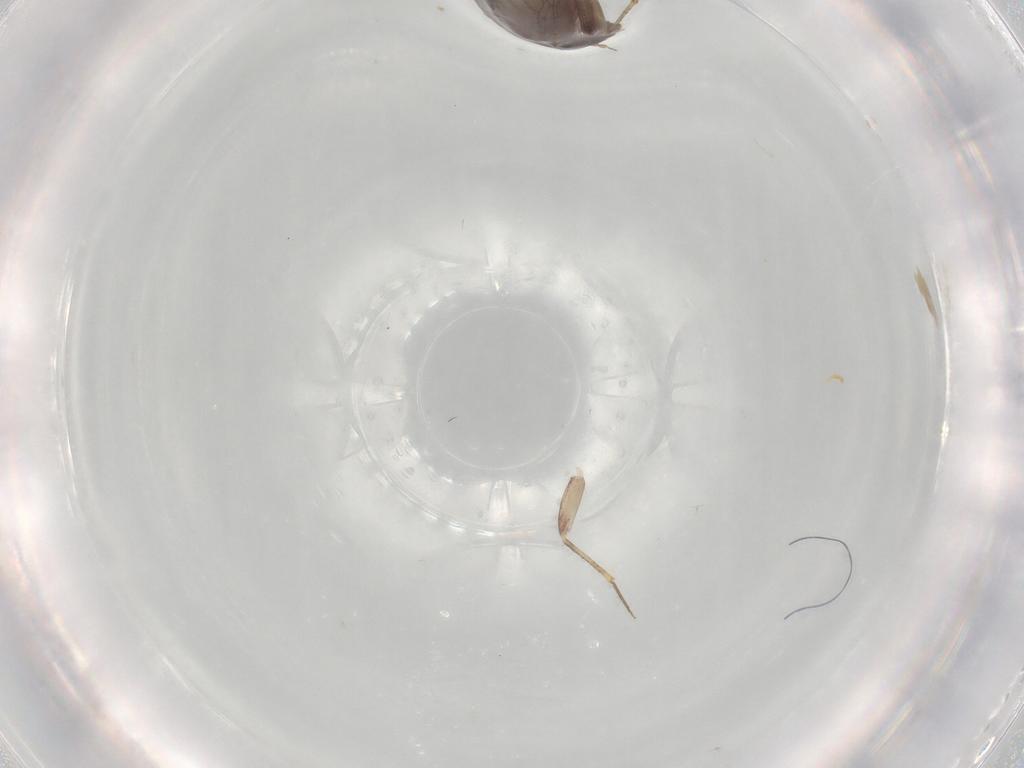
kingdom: Animalia
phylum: Arthropoda
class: Insecta
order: Psocodea
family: Lepidopsocidae
